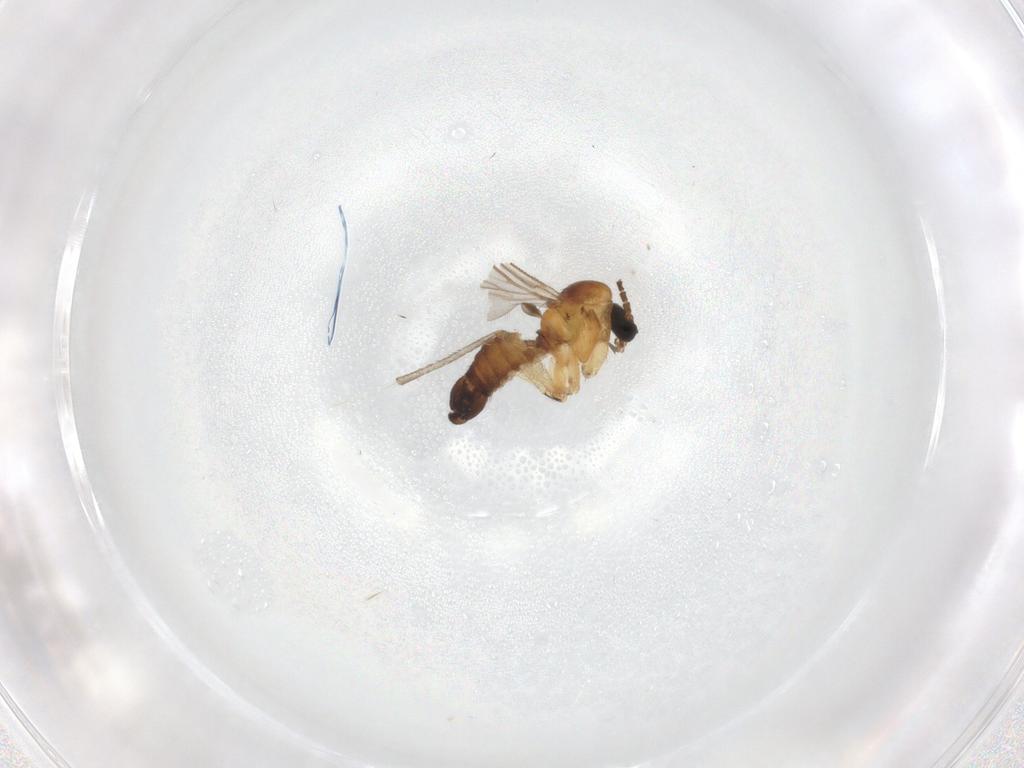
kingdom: Animalia
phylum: Arthropoda
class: Insecta
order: Diptera
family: Sciaridae
